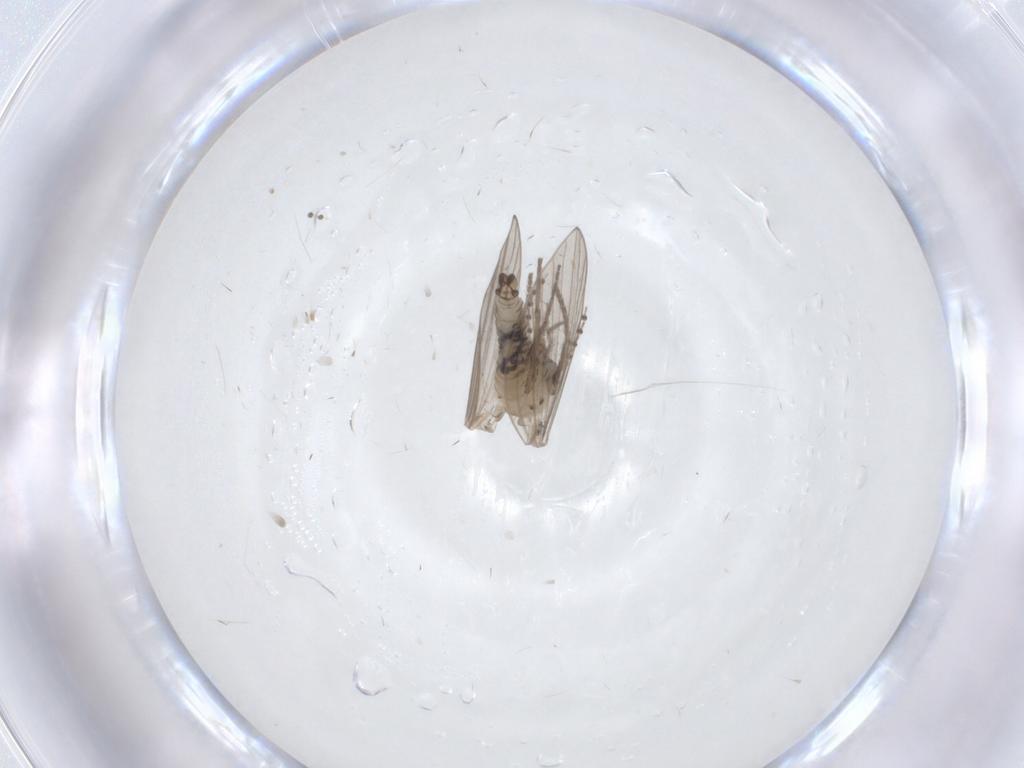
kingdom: Animalia
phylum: Arthropoda
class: Insecta
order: Diptera
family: Psychodidae
